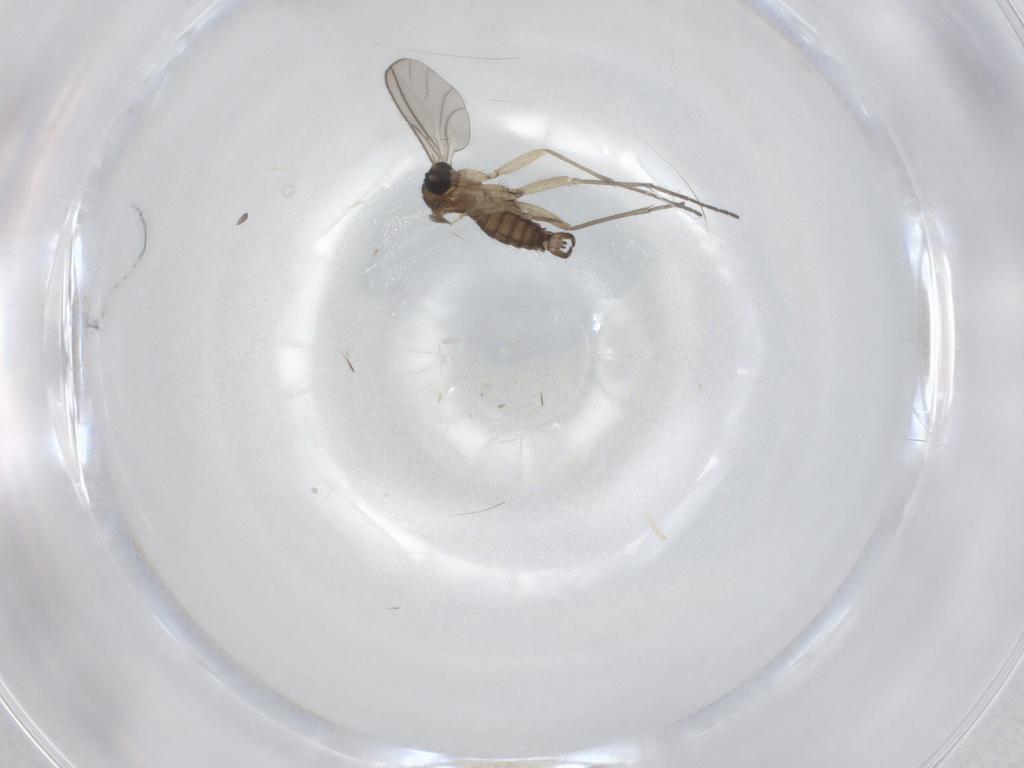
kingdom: Animalia
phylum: Arthropoda
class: Insecta
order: Diptera
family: Sciaridae
